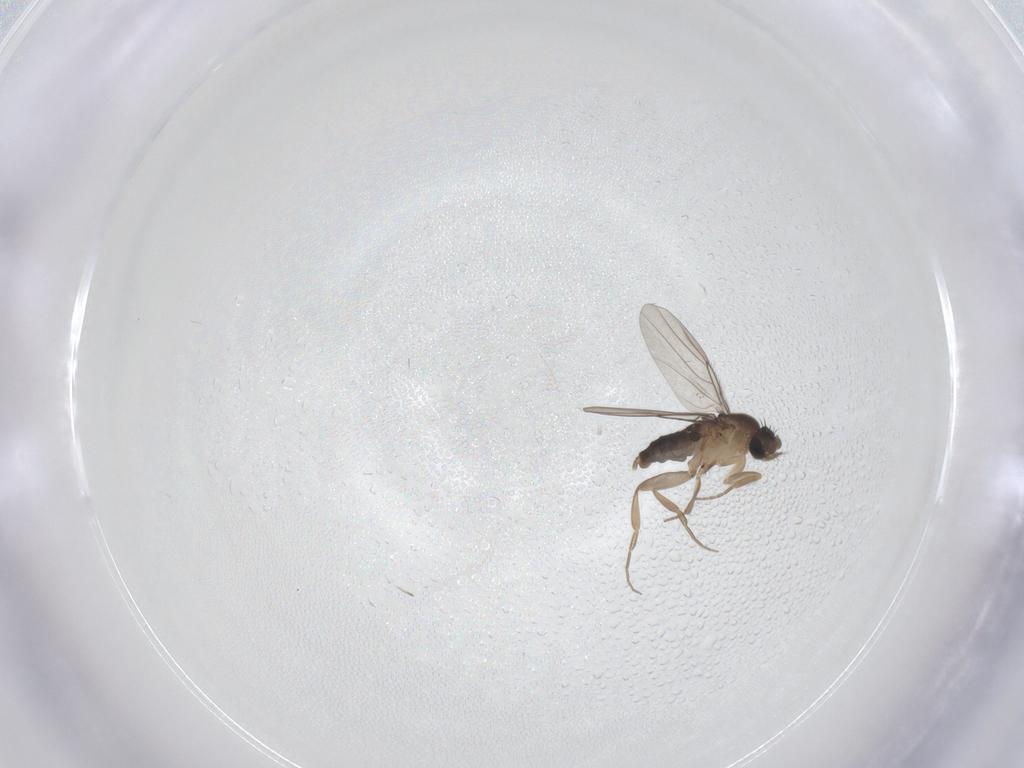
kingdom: Animalia
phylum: Arthropoda
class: Insecta
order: Diptera
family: Phoridae
